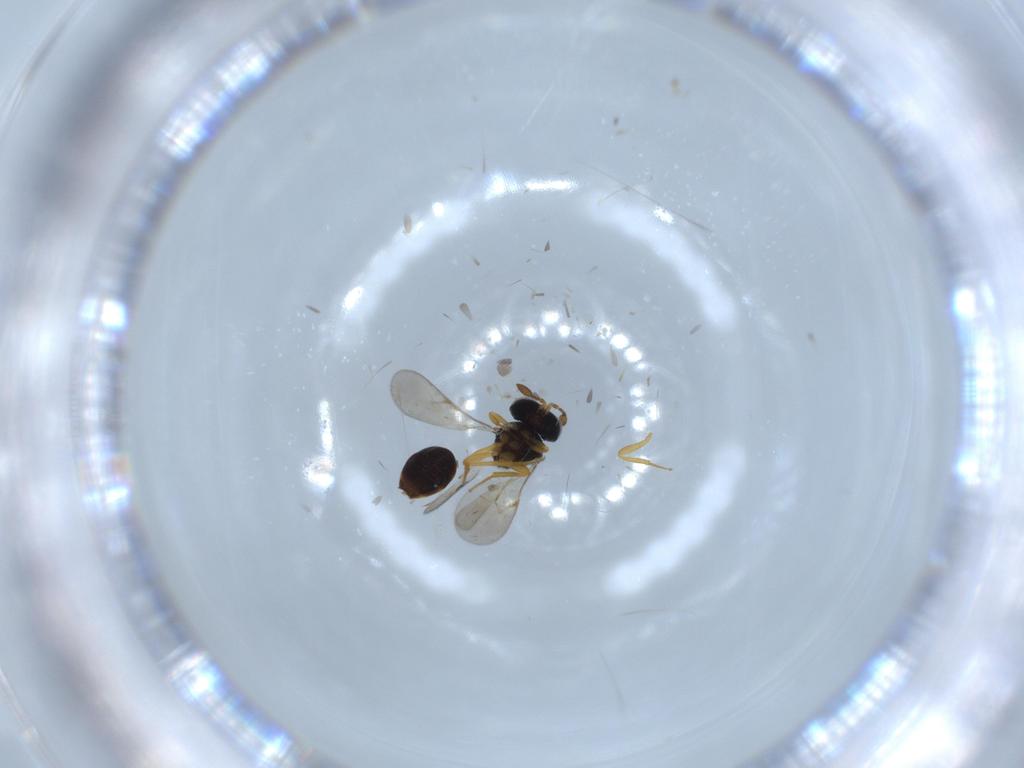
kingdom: Animalia
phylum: Arthropoda
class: Insecta
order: Hymenoptera
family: Scelionidae
